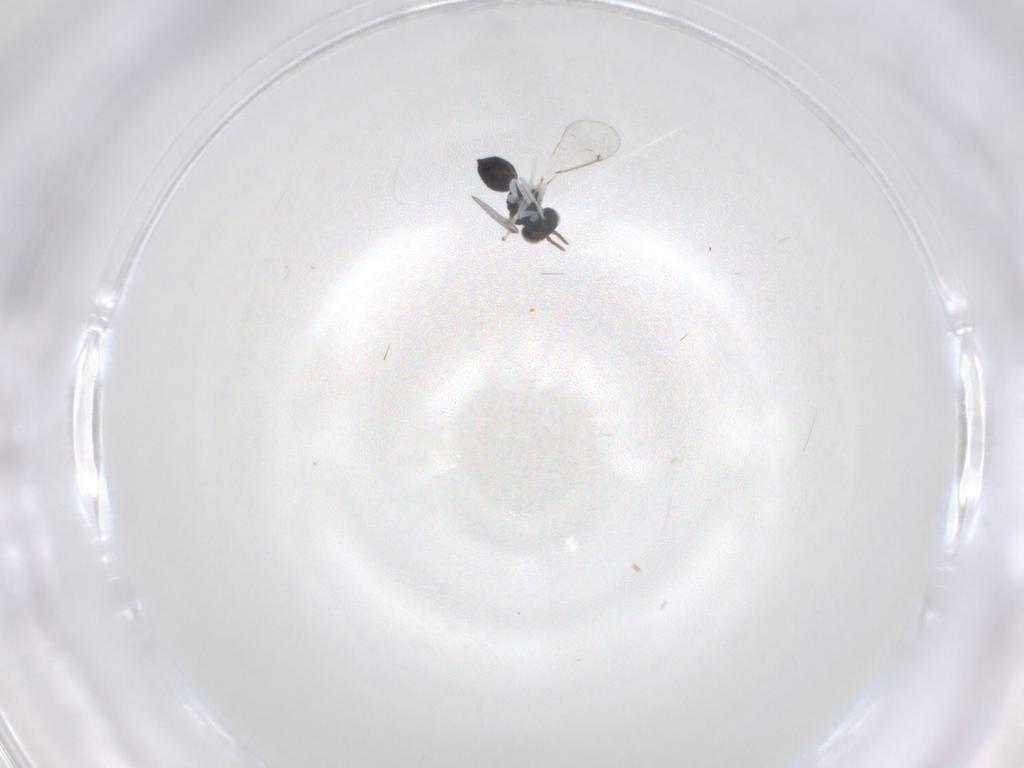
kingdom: Animalia
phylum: Arthropoda
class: Insecta
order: Hymenoptera
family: Eulophidae
